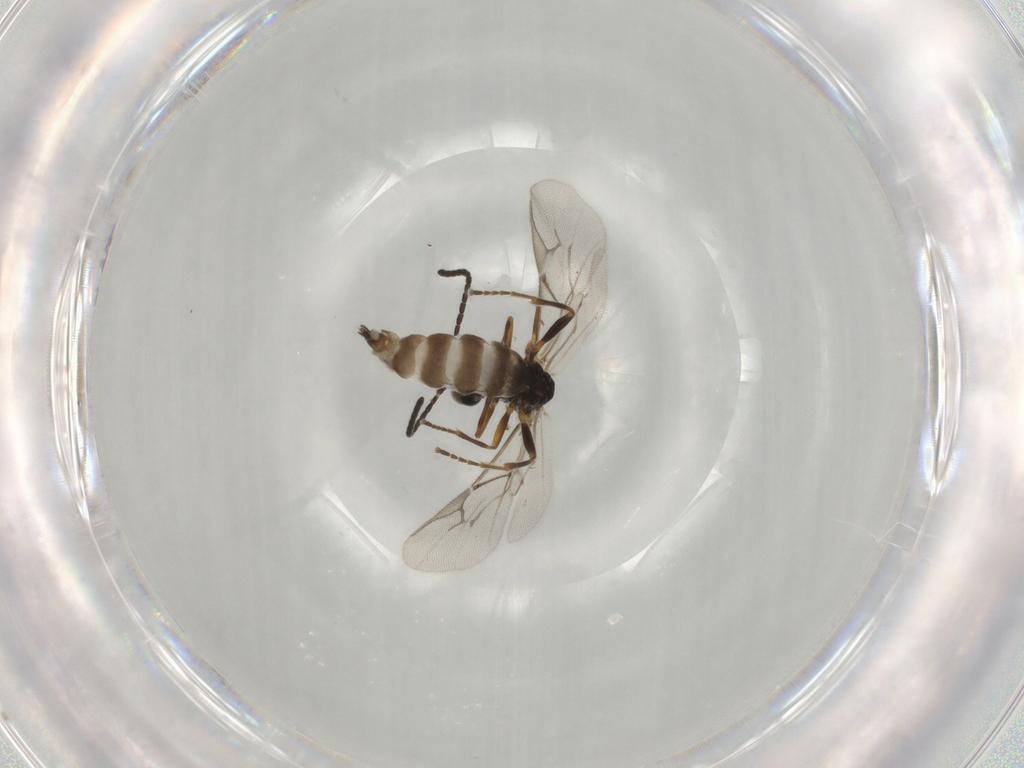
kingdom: Animalia
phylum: Arthropoda
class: Insecta
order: Hymenoptera
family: Braconidae
